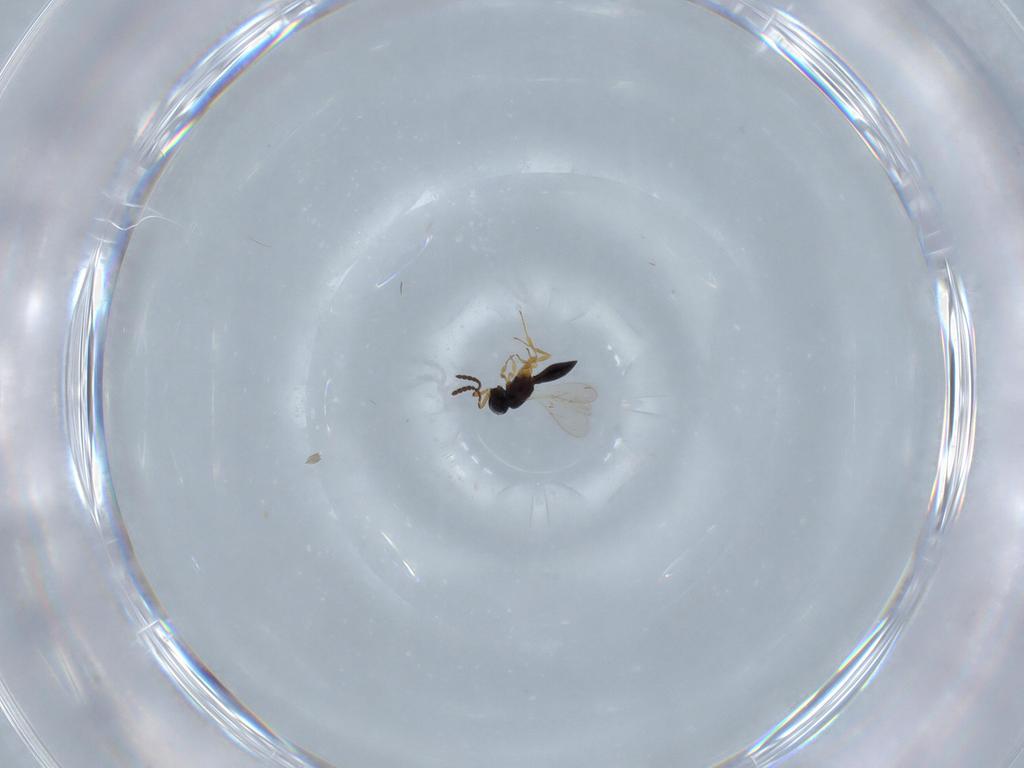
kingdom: Animalia
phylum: Arthropoda
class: Insecta
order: Hymenoptera
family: Scelionidae
